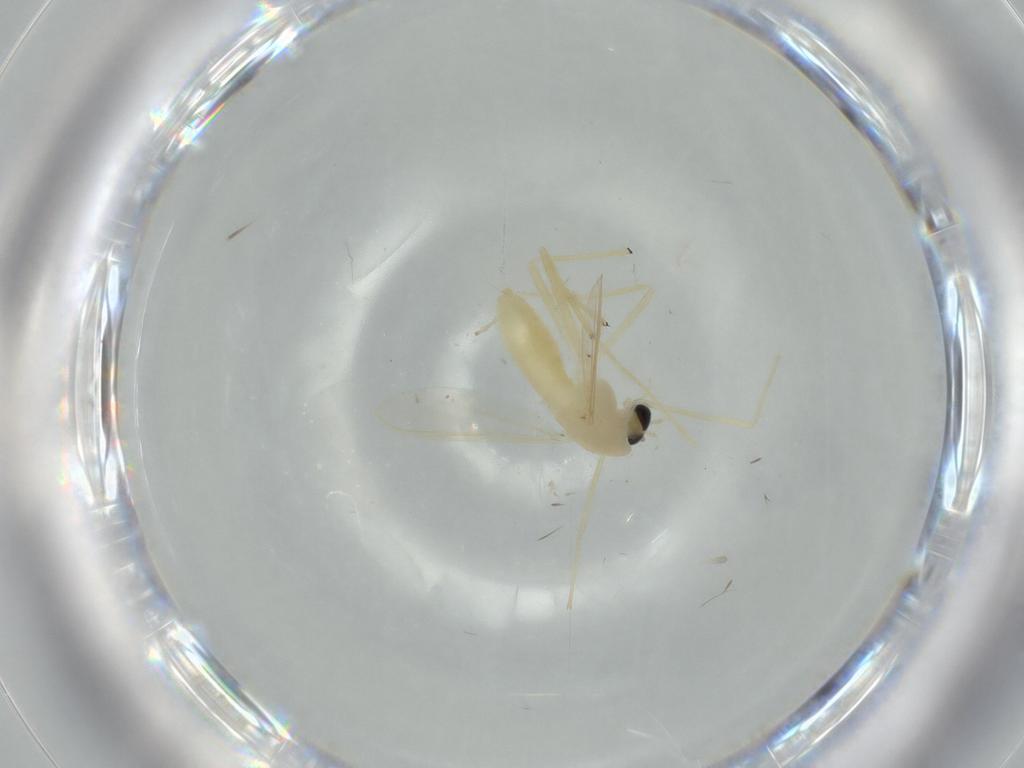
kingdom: Animalia
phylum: Arthropoda
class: Insecta
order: Diptera
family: Chironomidae
